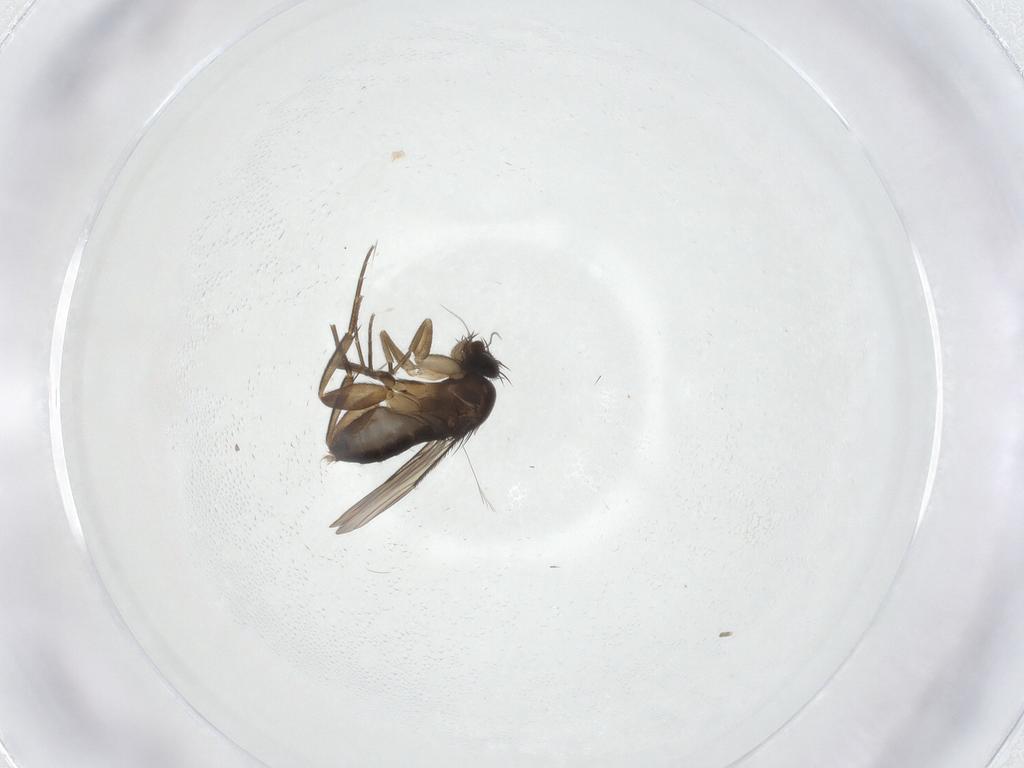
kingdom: Animalia
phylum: Arthropoda
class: Insecta
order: Diptera
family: Phoridae
